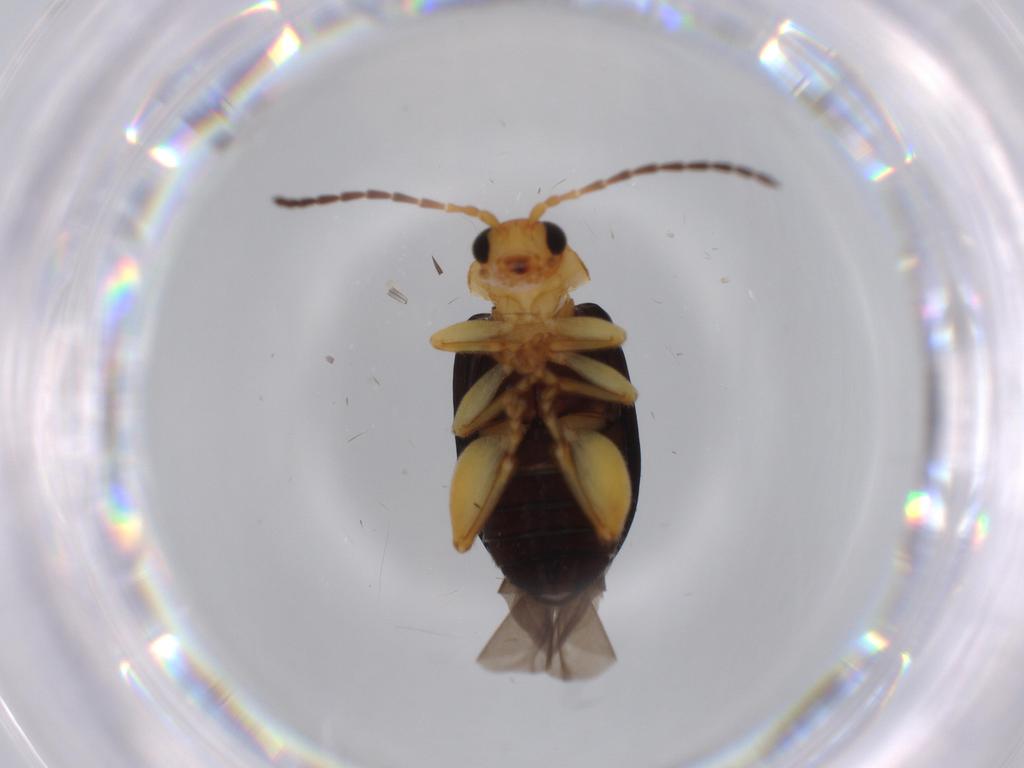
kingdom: Animalia
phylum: Arthropoda
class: Insecta
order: Coleoptera
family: Chrysomelidae
